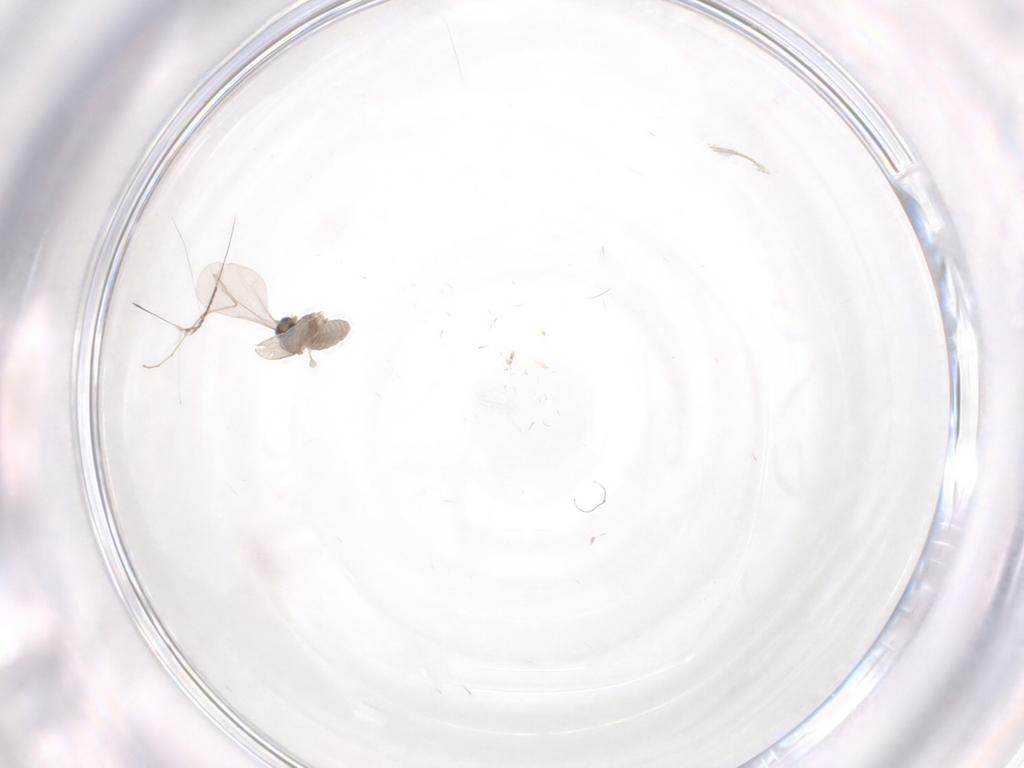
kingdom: Animalia
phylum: Arthropoda
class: Insecta
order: Diptera
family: Cecidomyiidae
